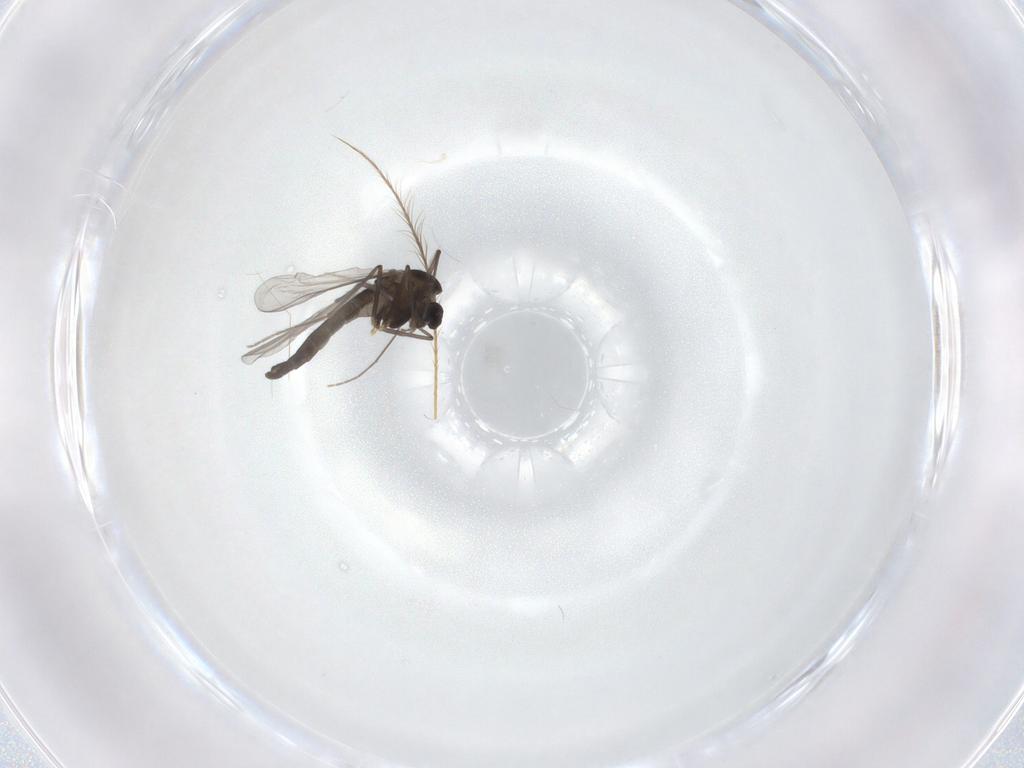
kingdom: Animalia
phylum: Arthropoda
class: Insecta
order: Diptera
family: Chironomidae
